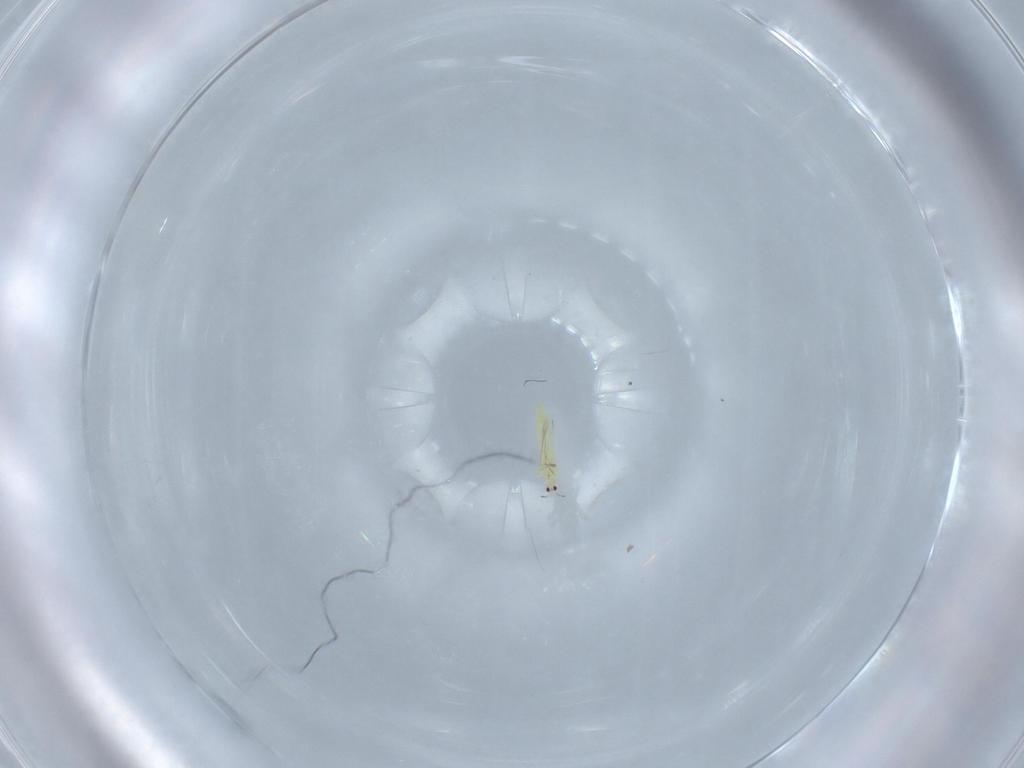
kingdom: Animalia
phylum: Arthropoda
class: Insecta
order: Thysanoptera
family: Thripidae
